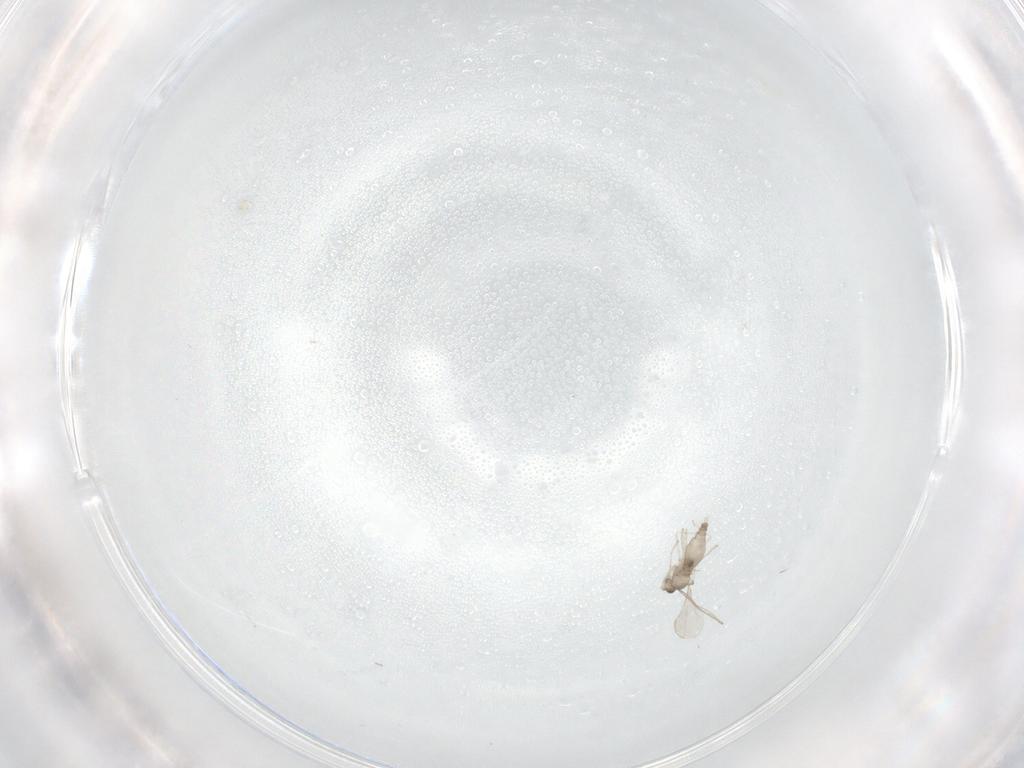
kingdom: Animalia
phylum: Arthropoda
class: Insecta
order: Diptera
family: Cecidomyiidae
